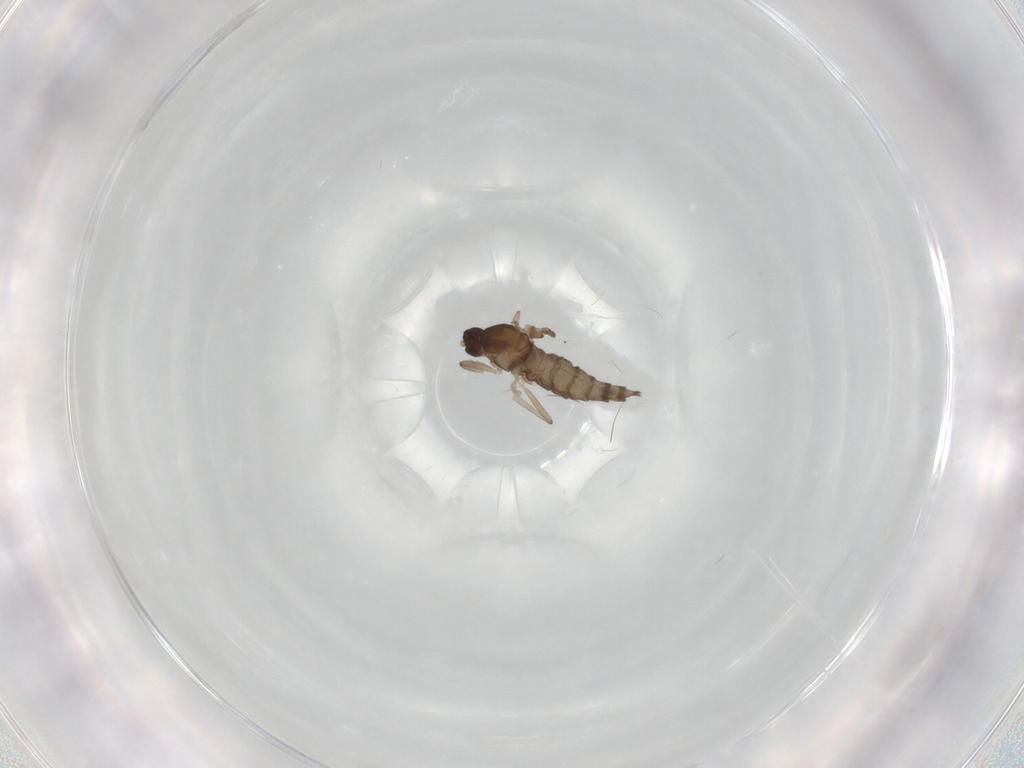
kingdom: Animalia
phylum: Arthropoda
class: Insecta
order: Diptera
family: Cecidomyiidae
